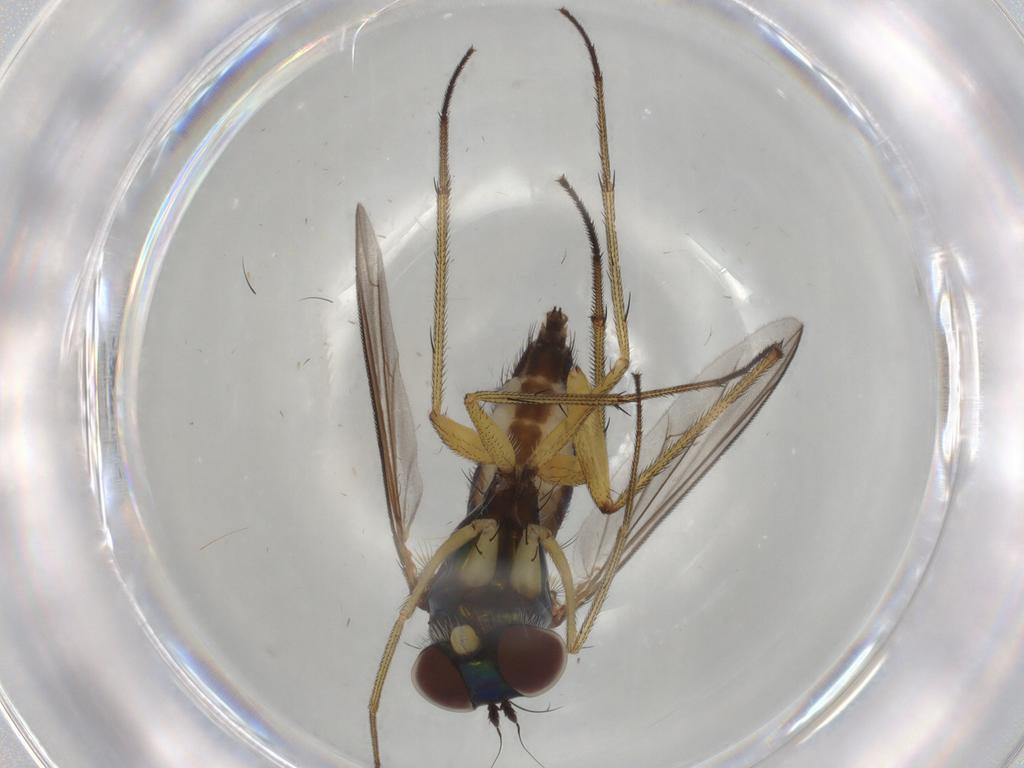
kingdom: Animalia
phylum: Arthropoda
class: Insecta
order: Diptera
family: Dolichopodidae
